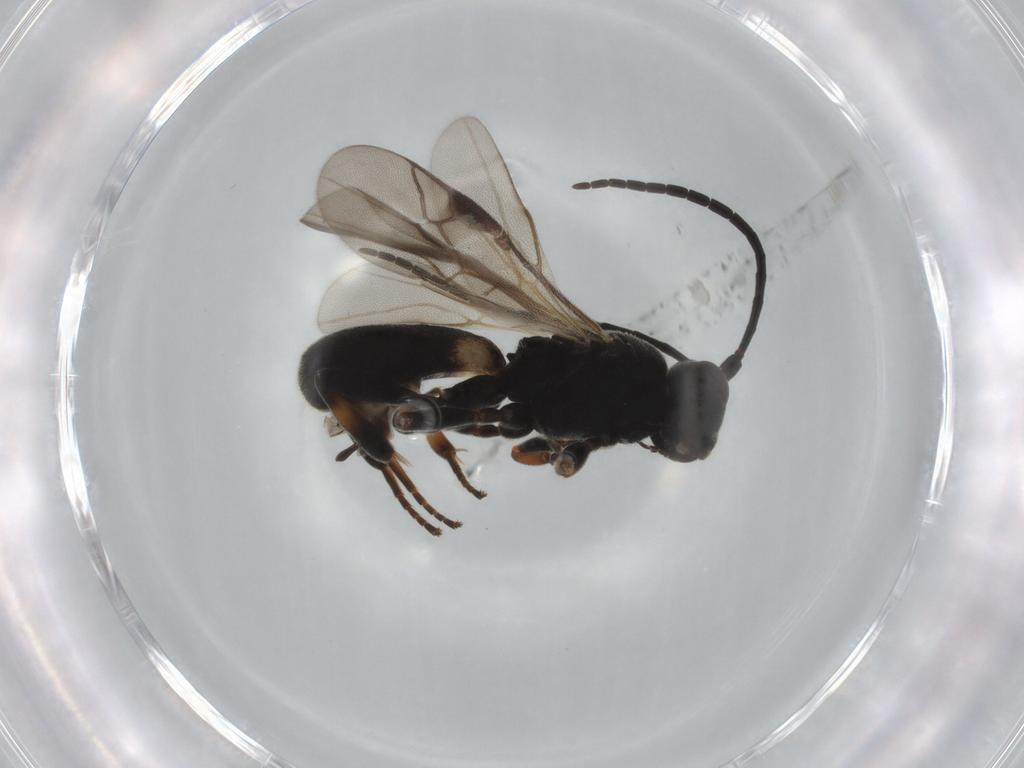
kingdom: Animalia
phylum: Arthropoda
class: Insecta
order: Hymenoptera
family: Braconidae
